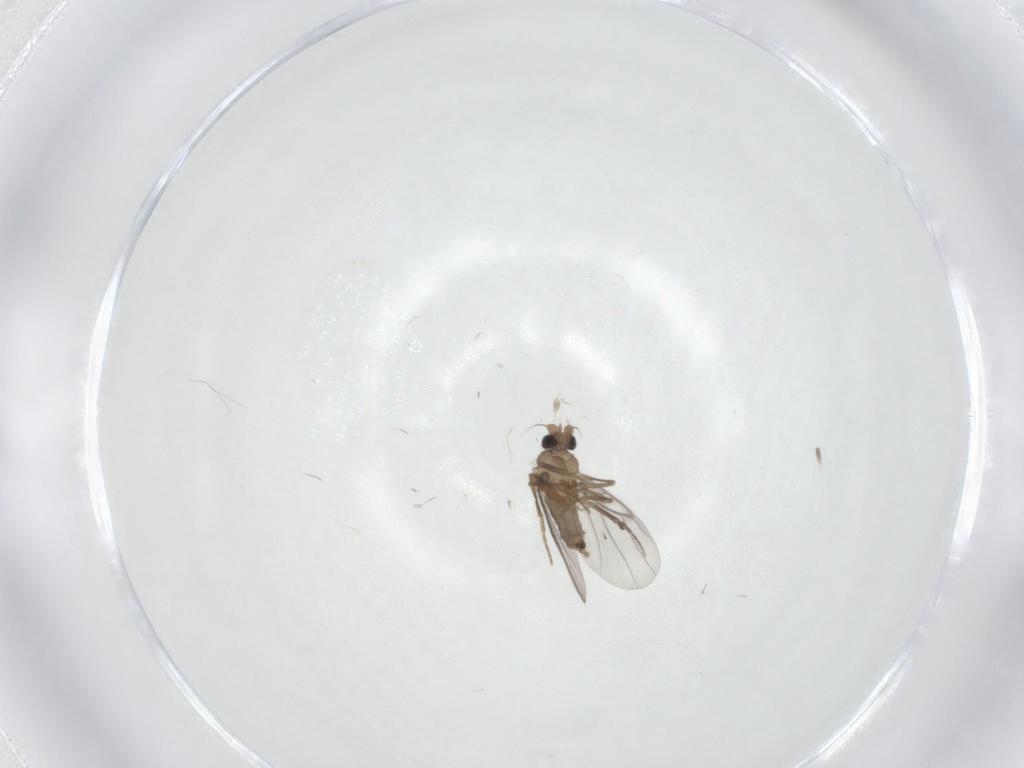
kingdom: Animalia
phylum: Arthropoda
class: Insecta
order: Diptera
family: Cecidomyiidae
